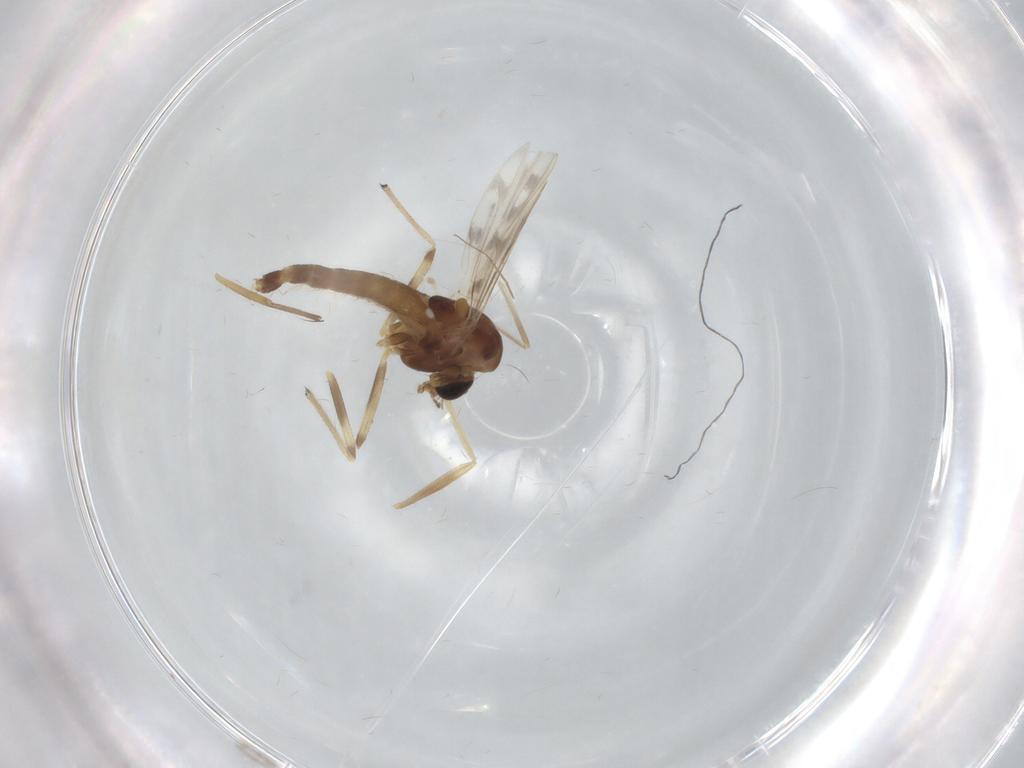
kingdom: Animalia
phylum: Arthropoda
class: Insecta
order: Diptera
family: Chironomidae
